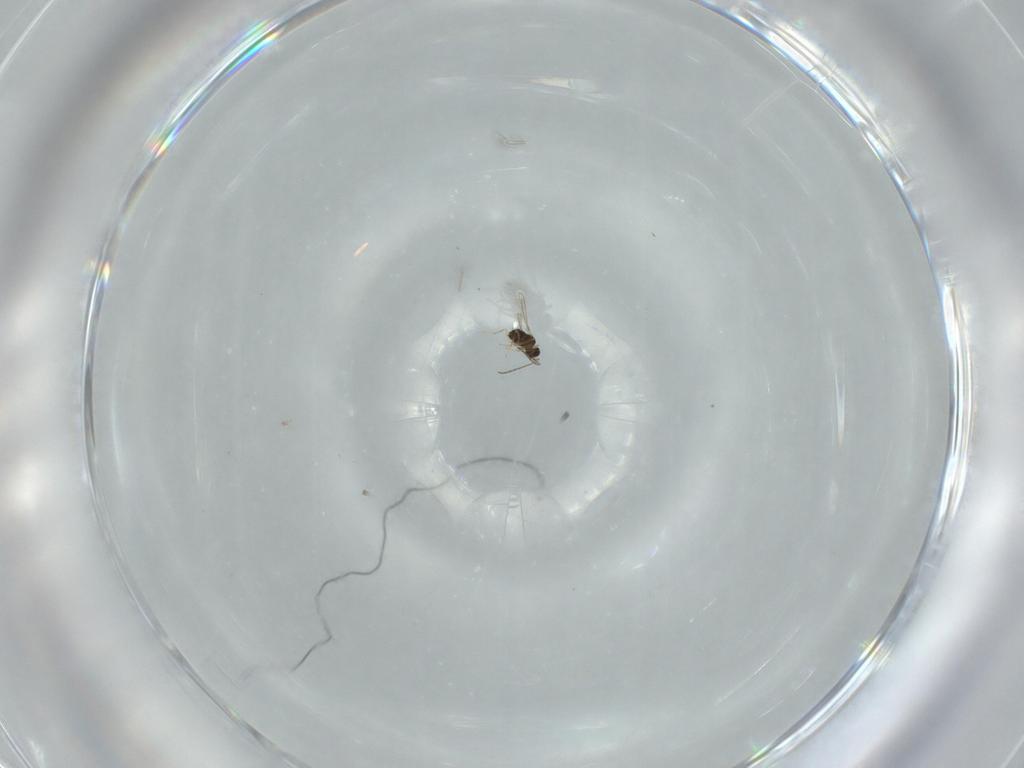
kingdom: Animalia
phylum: Arthropoda
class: Insecta
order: Hymenoptera
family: Bethylidae
